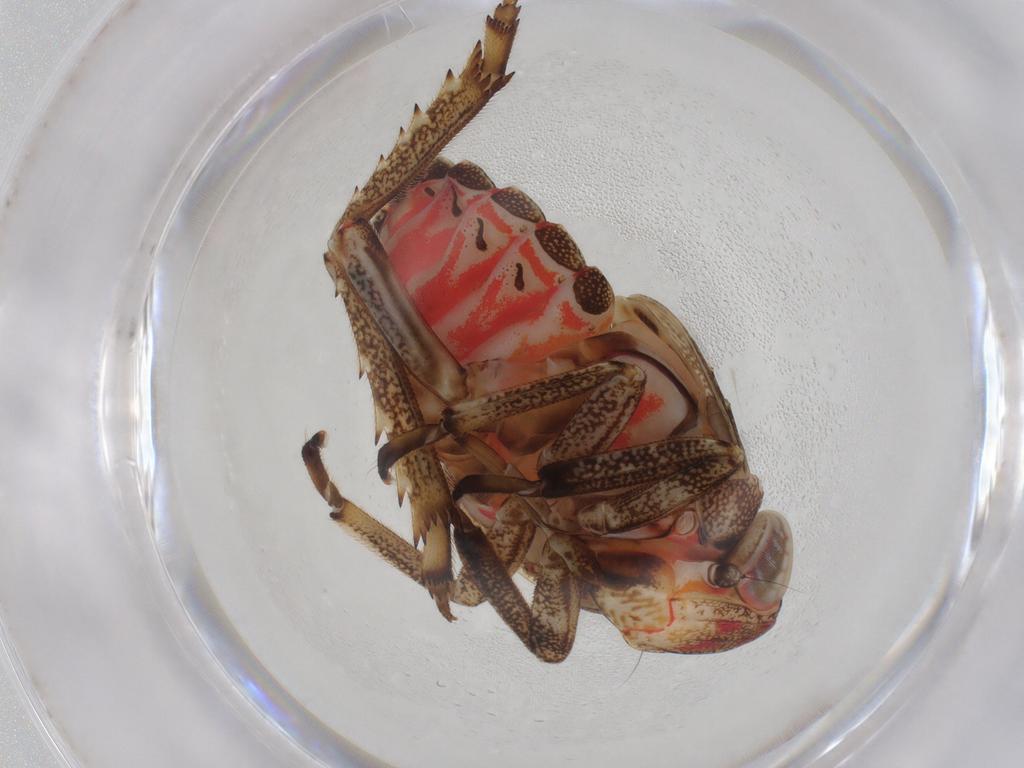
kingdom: Animalia
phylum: Arthropoda
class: Insecta
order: Hemiptera
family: Issidae
